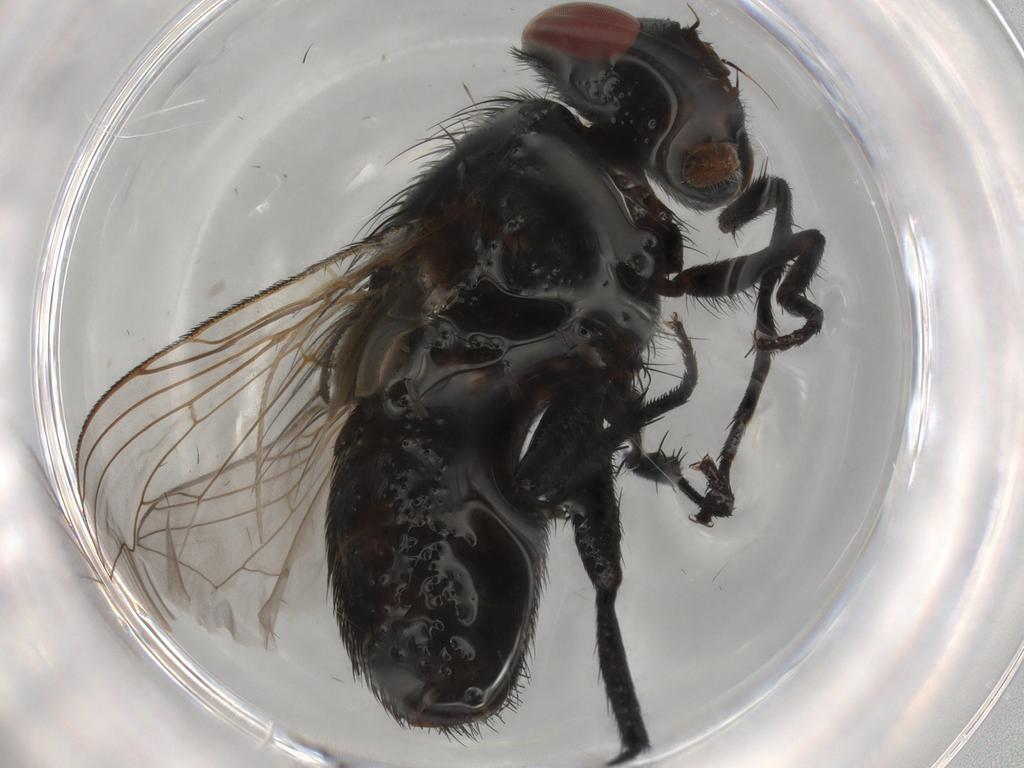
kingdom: Animalia
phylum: Arthropoda
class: Insecta
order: Diptera
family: Sarcophagidae
